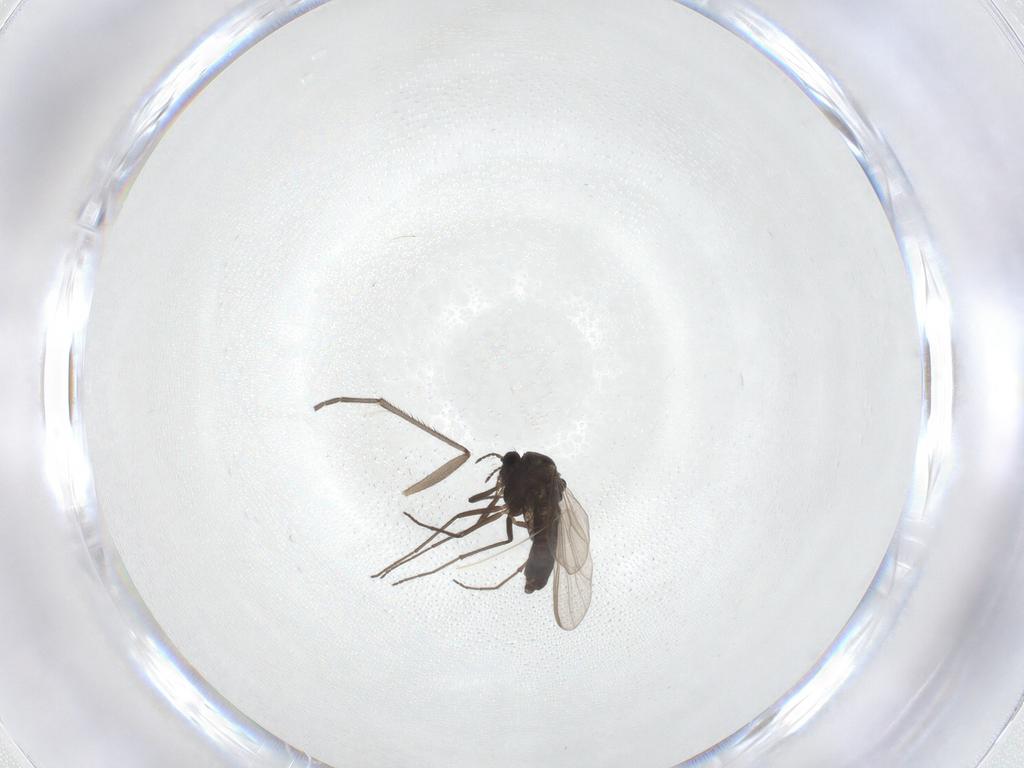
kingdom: Animalia
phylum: Arthropoda
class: Insecta
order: Diptera
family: Chironomidae
